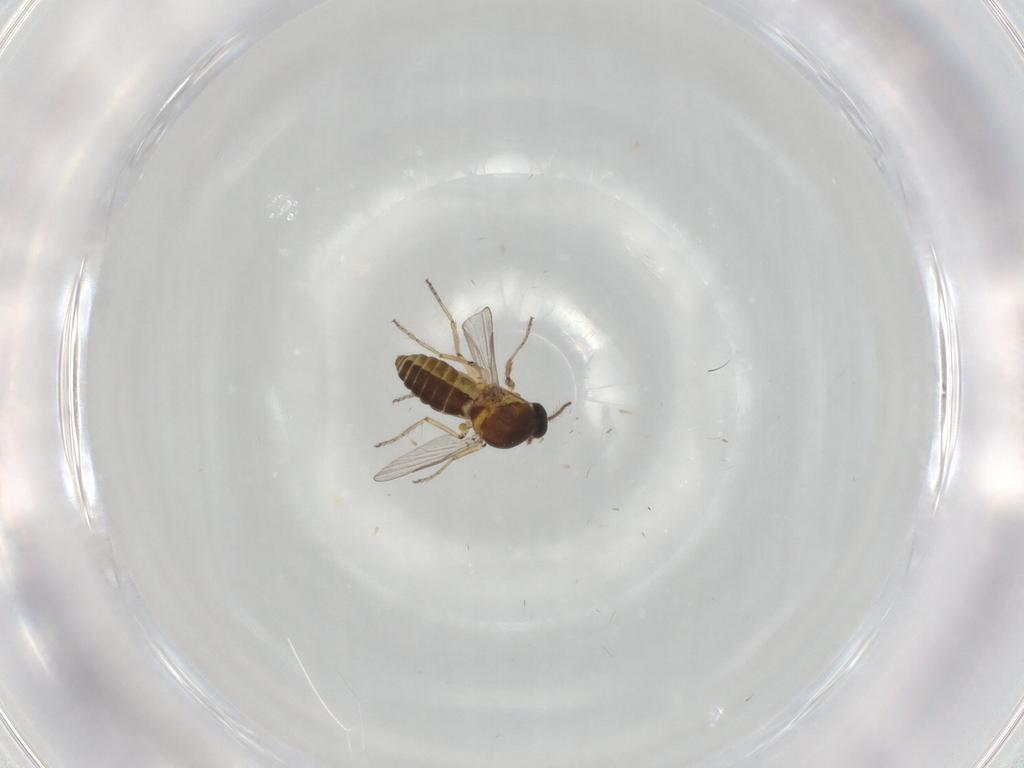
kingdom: Animalia
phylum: Arthropoda
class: Insecta
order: Diptera
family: Ceratopogonidae
